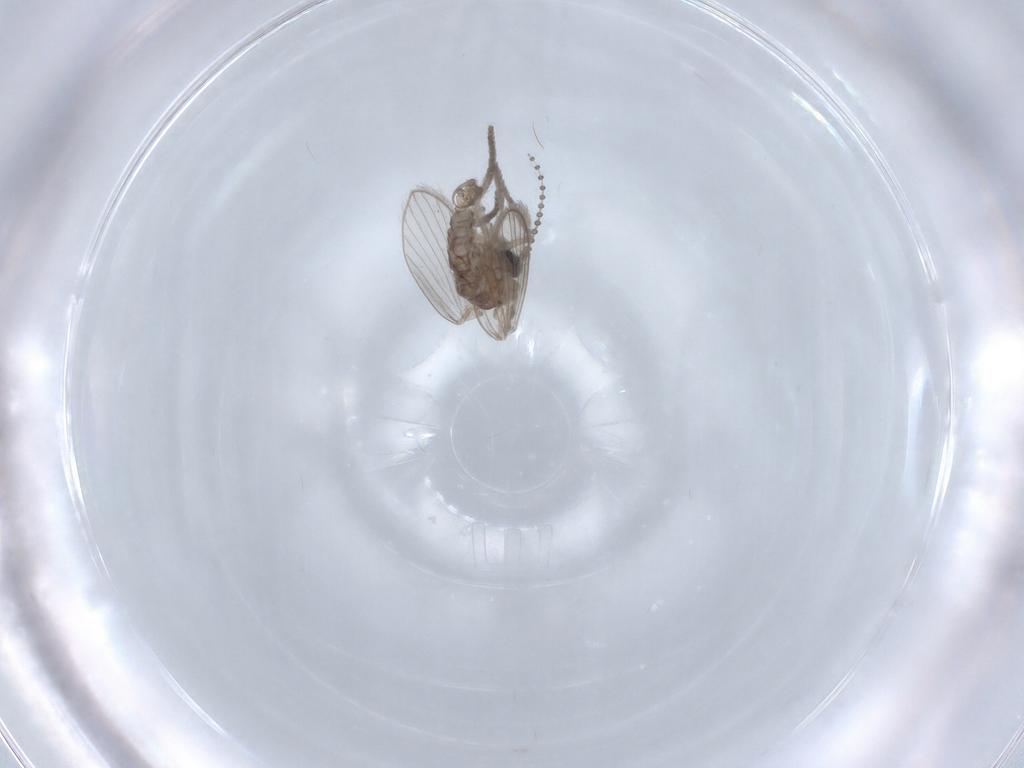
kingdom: Animalia
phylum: Arthropoda
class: Insecta
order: Diptera
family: Psychodidae
